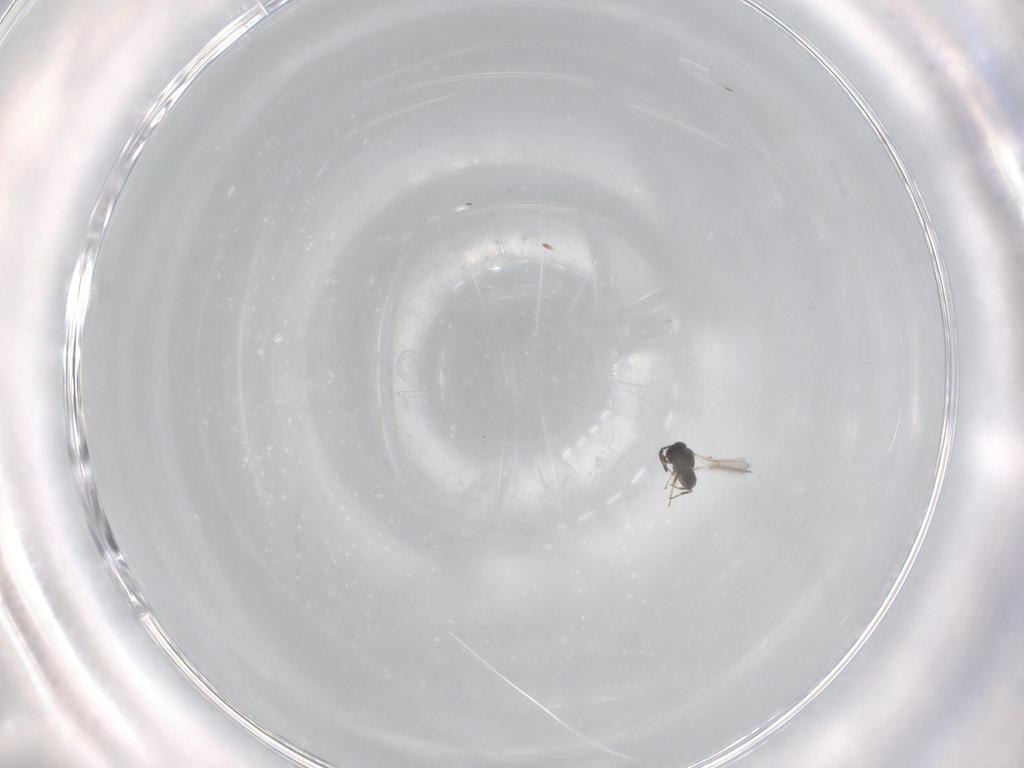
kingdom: Animalia
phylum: Arthropoda
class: Insecta
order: Hymenoptera
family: Scelionidae
